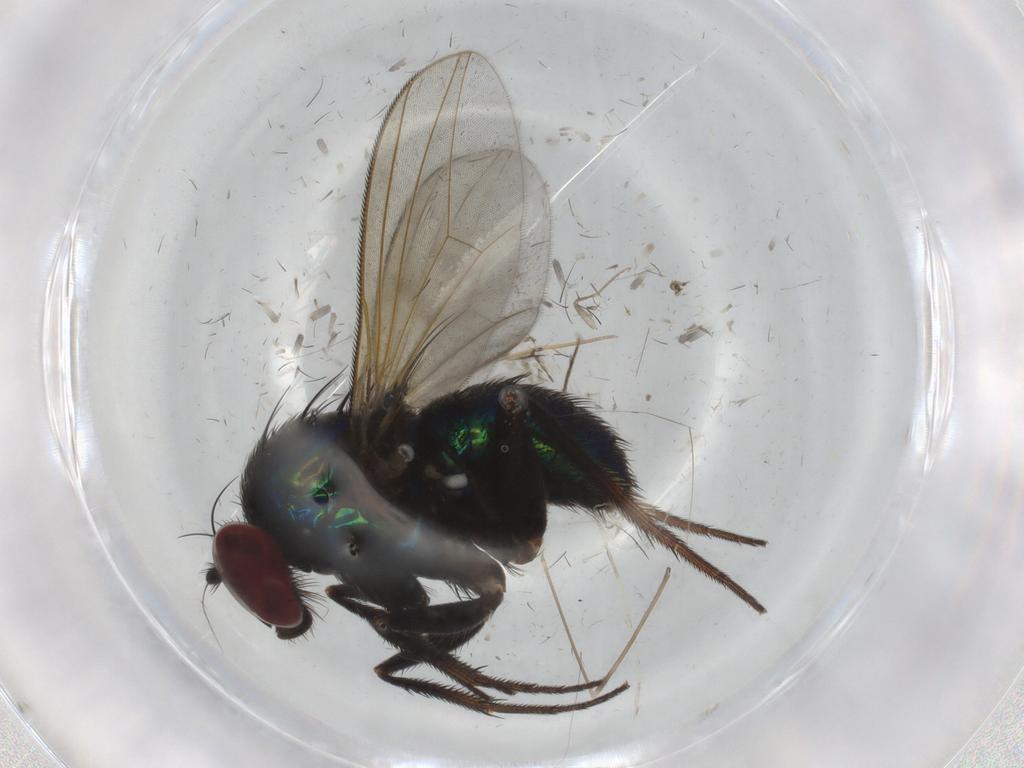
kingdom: Animalia
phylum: Arthropoda
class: Insecta
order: Diptera
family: Dolichopodidae
